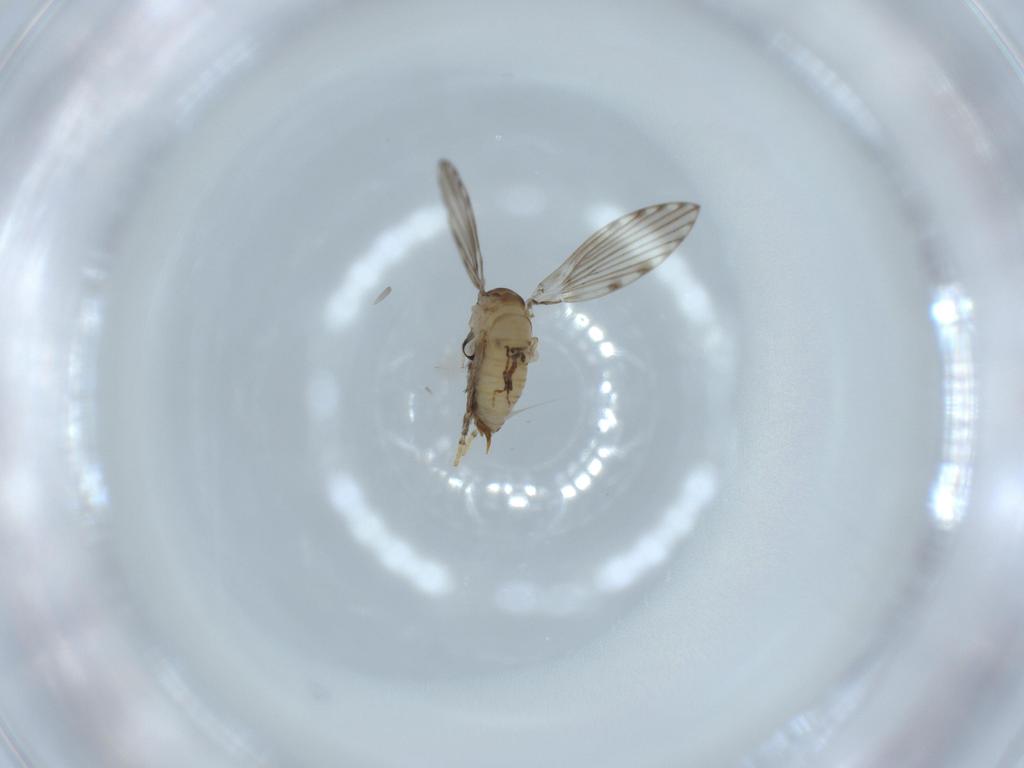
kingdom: Animalia
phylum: Arthropoda
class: Insecta
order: Diptera
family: Psychodidae
